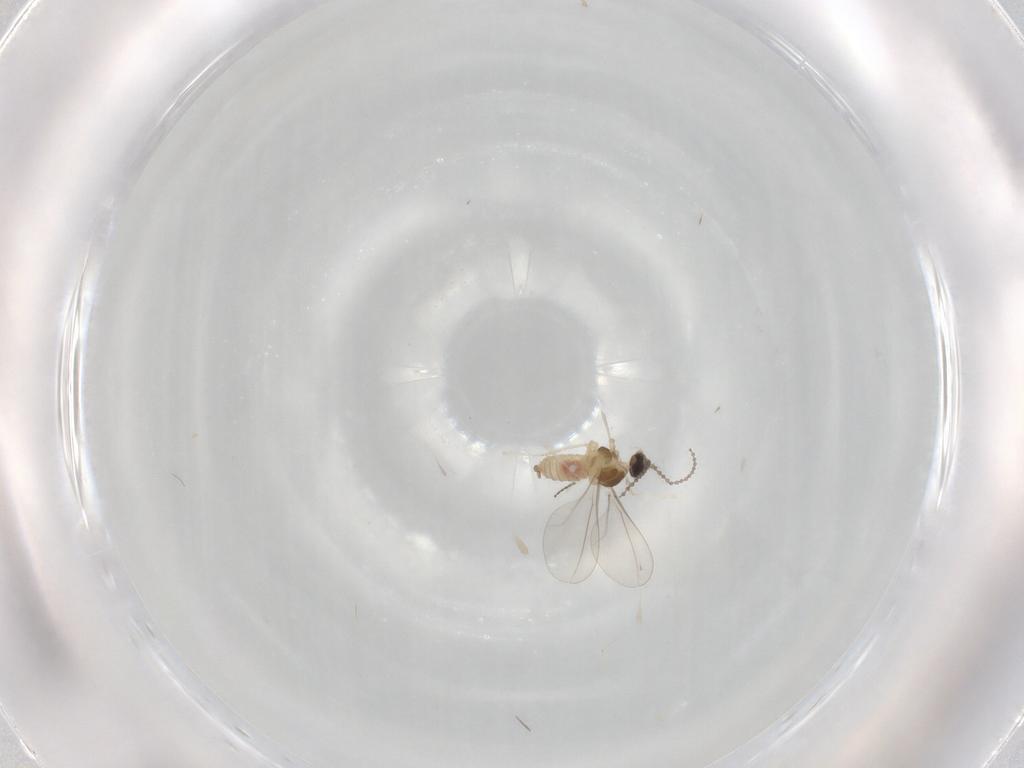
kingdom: Animalia
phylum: Arthropoda
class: Insecta
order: Diptera
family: Cecidomyiidae
